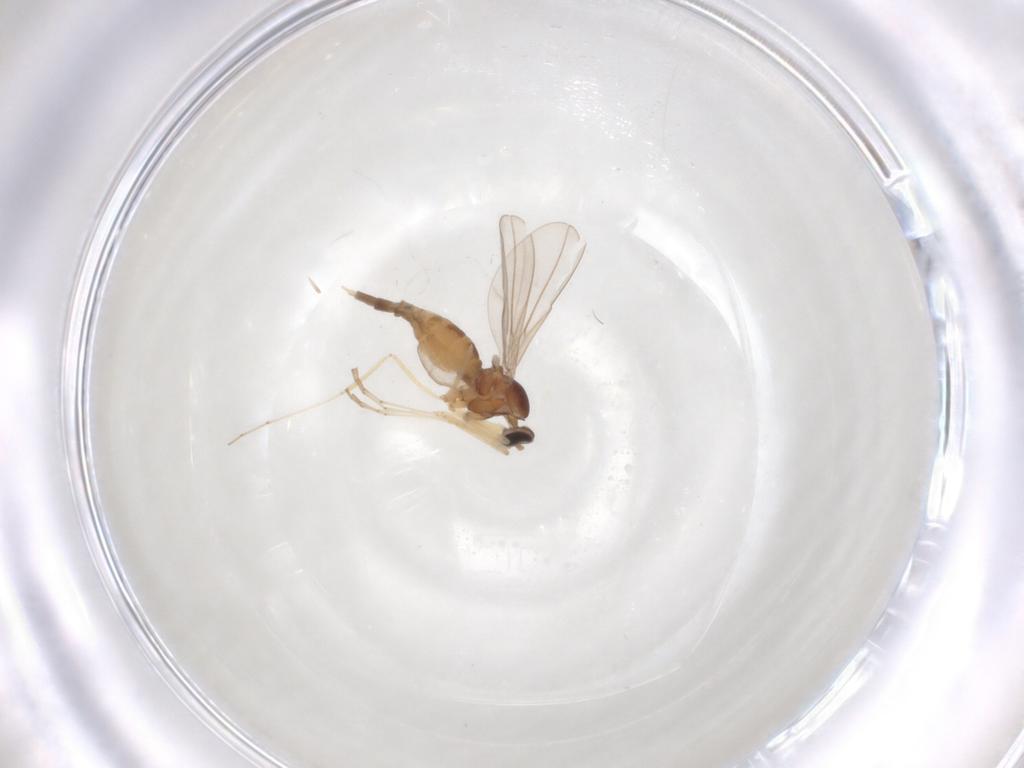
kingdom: Animalia
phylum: Arthropoda
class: Insecta
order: Diptera
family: Cecidomyiidae
